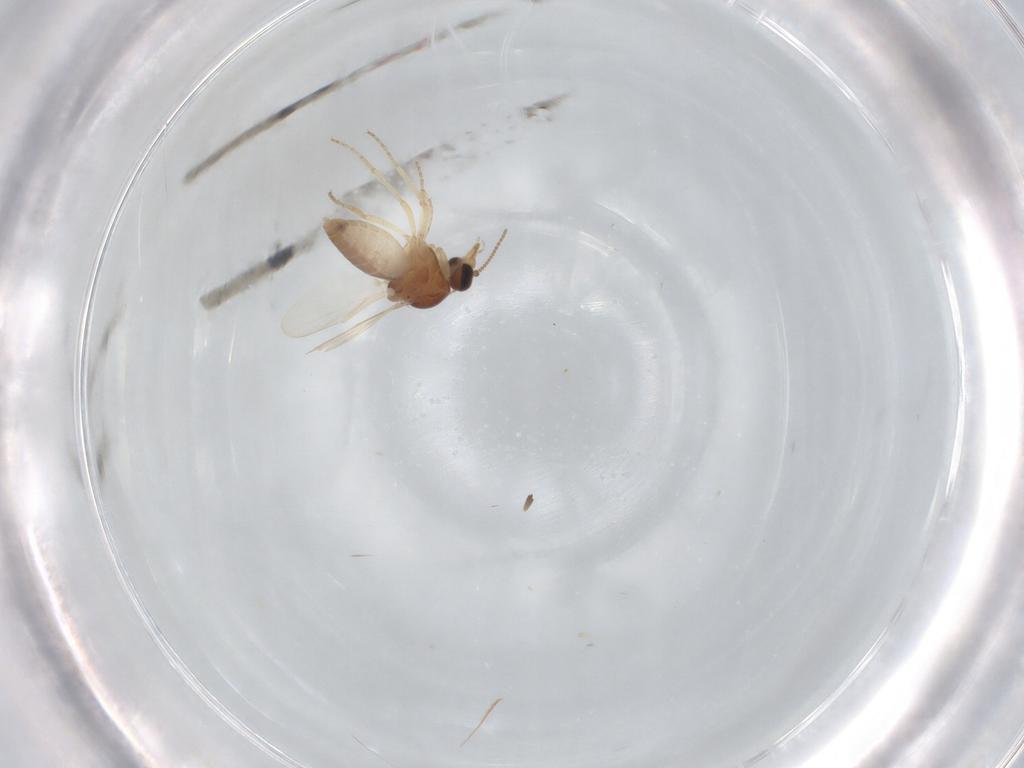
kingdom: Animalia
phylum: Arthropoda
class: Insecta
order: Diptera
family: Ceratopogonidae
